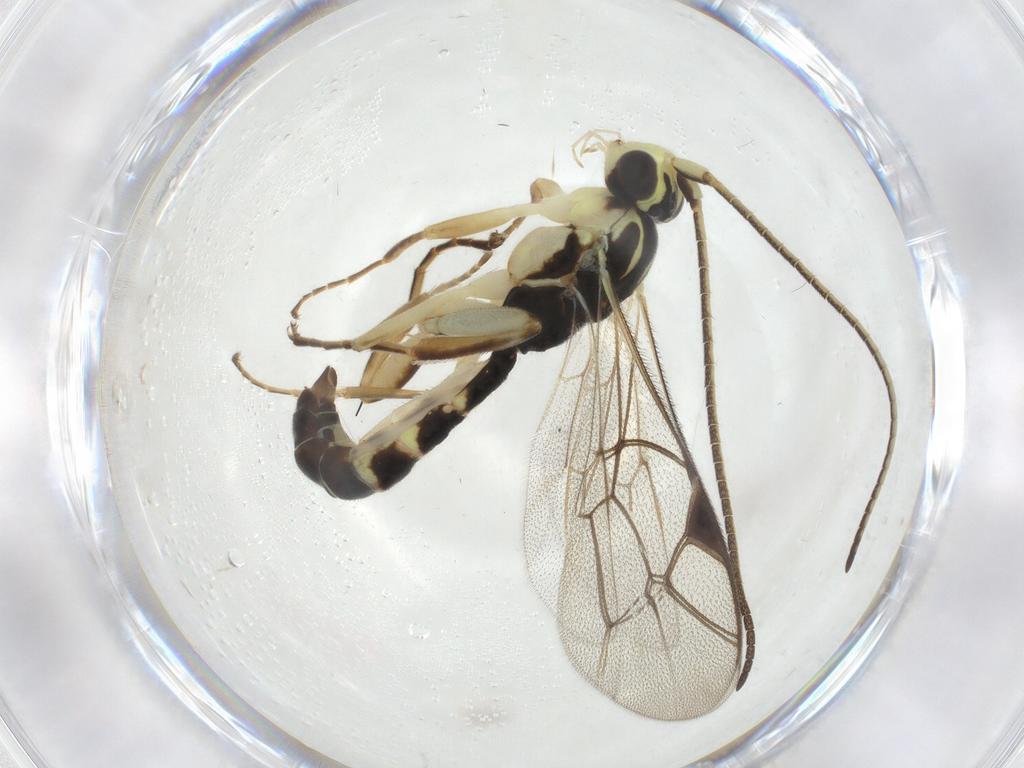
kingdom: Animalia
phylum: Arthropoda
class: Insecta
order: Hymenoptera
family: Ichneumonidae
